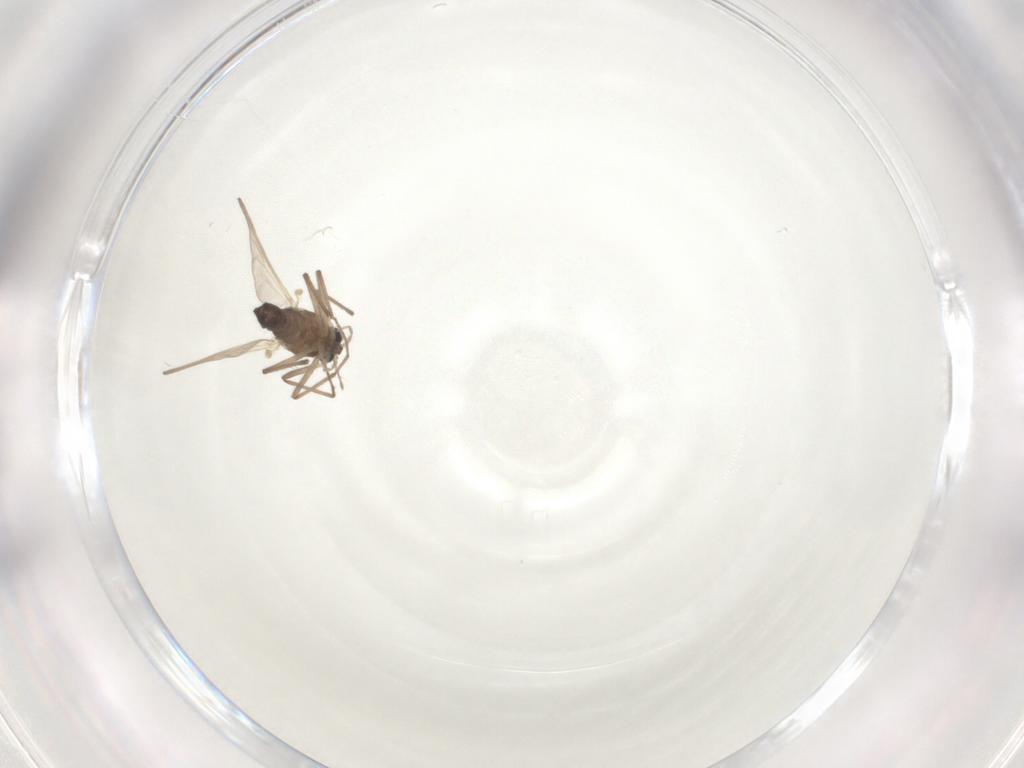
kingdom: Animalia
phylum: Arthropoda
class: Insecta
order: Diptera
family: Chironomidae
